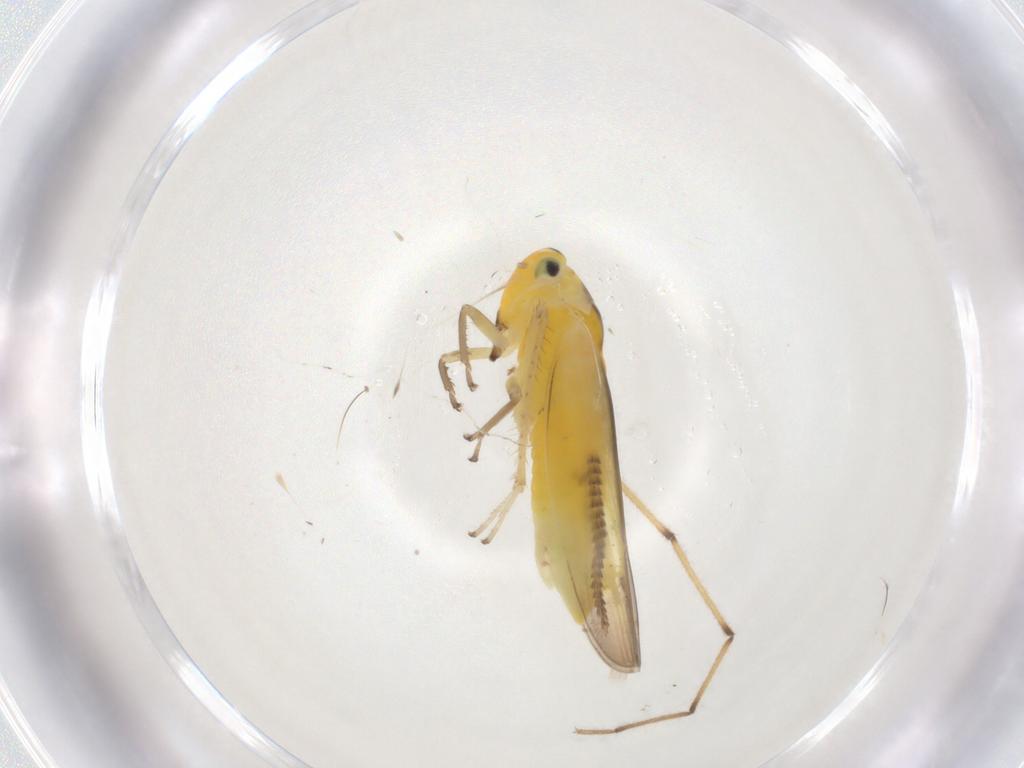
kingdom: Animalia
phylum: Arthropoda
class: Insecta
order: Hemiptera
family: Cicadellidae
